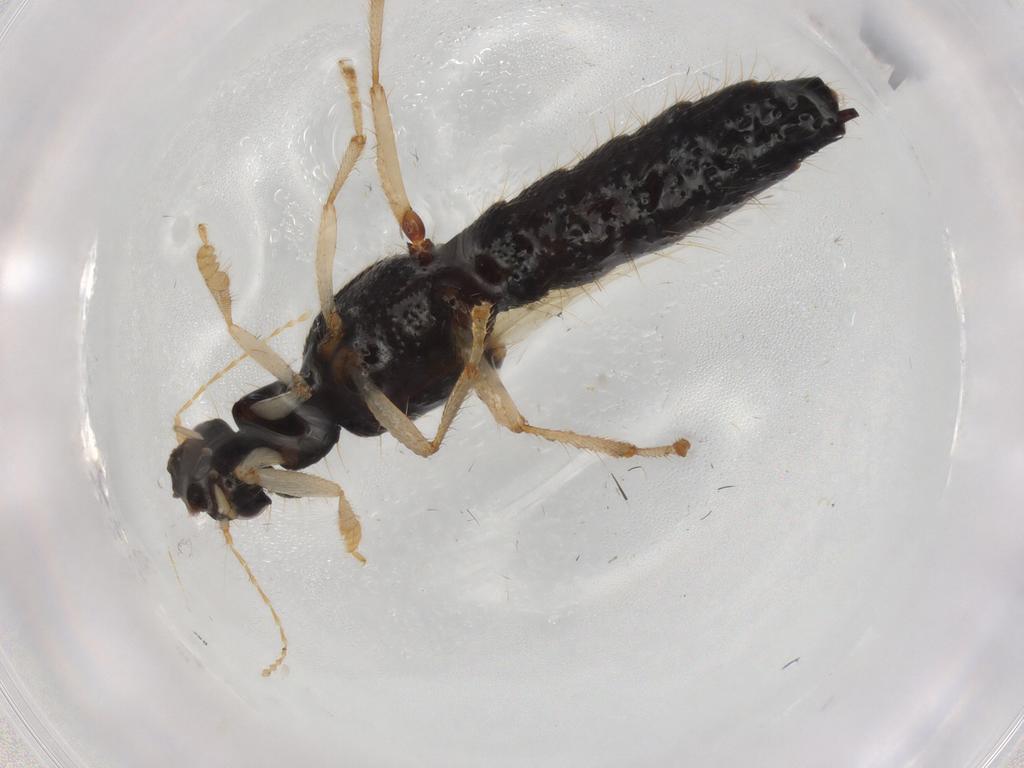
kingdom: Animalia
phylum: Arthropoda
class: Insecta
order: Coleoptera
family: Staphylinidae
